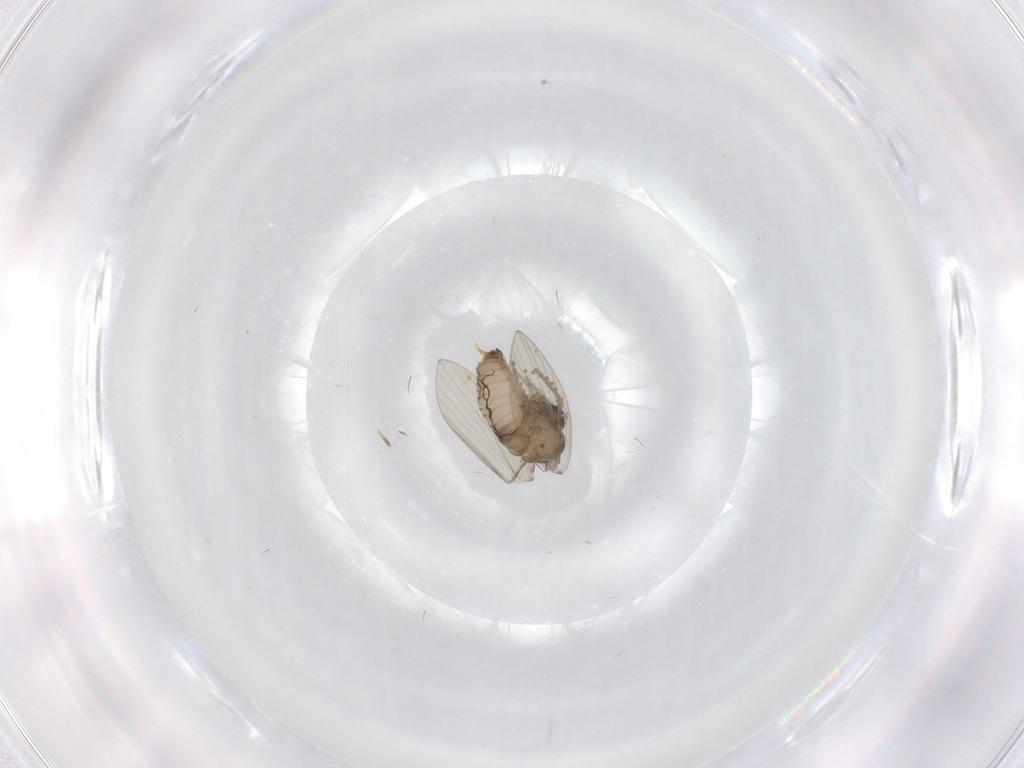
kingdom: Animalia
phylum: Arthropoda
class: Insecta
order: Diptera
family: Psychodidae
